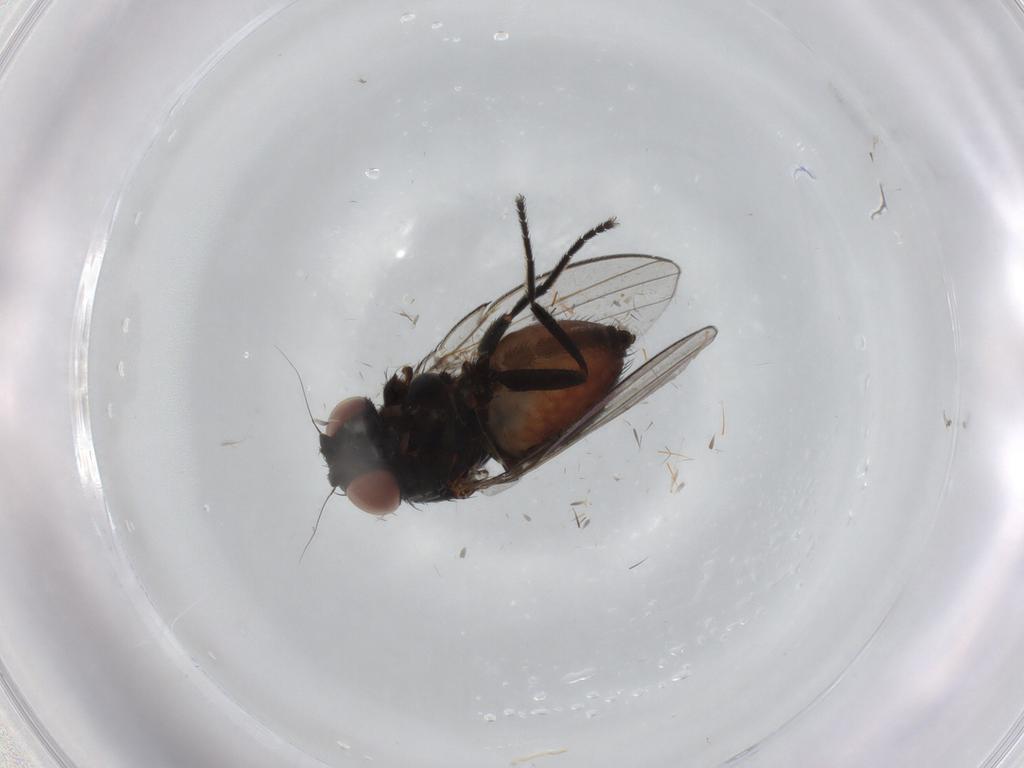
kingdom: Animalia
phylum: Arthropoda
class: Insecta
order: Diptera
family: Milichiidae
